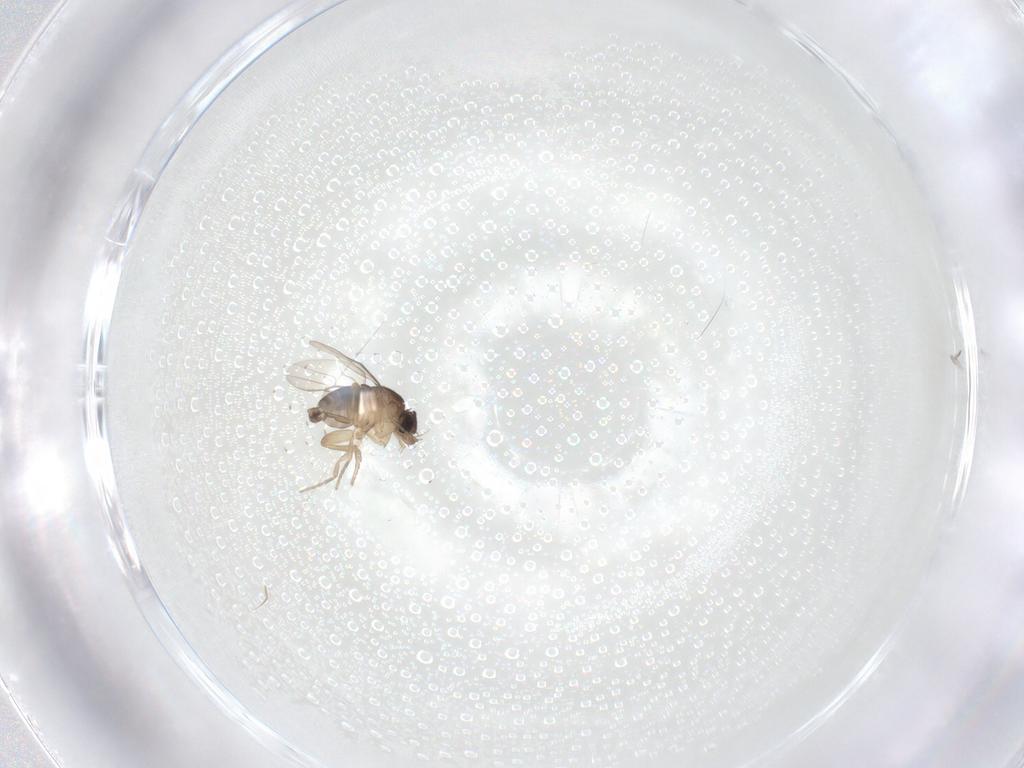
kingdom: Animalia
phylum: Arthropoda
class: Insecta
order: Diptera
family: Phoridae
